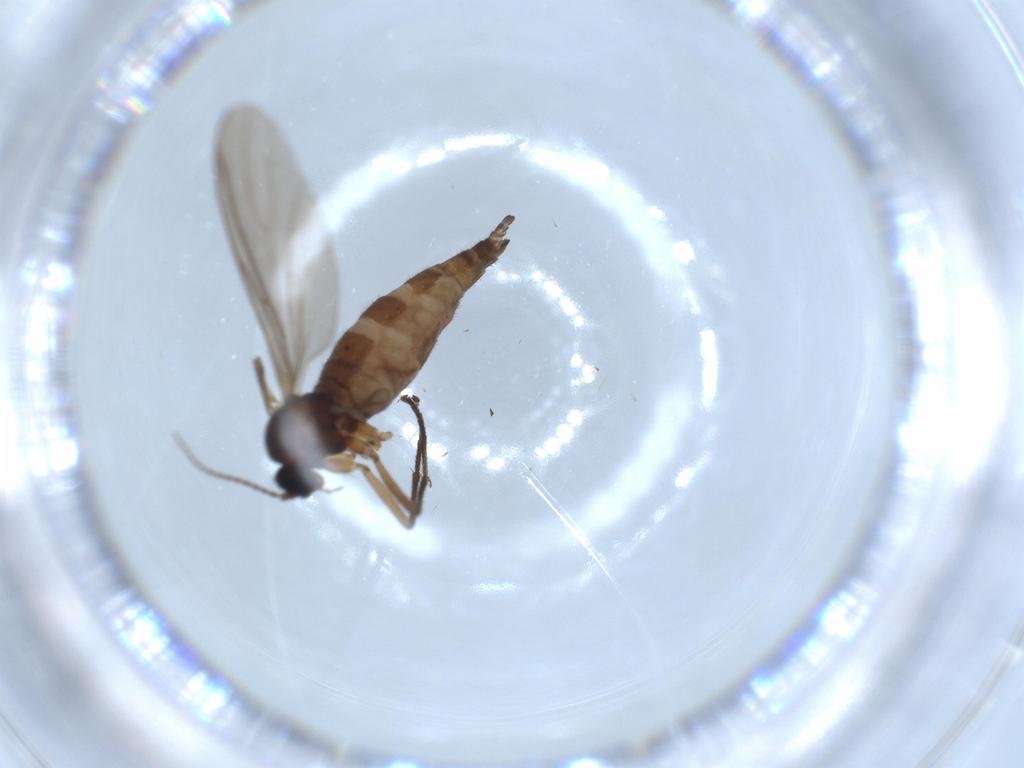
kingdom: Animalia
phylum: Arthropoda
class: Insecta
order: Diptera
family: Sciaridae
